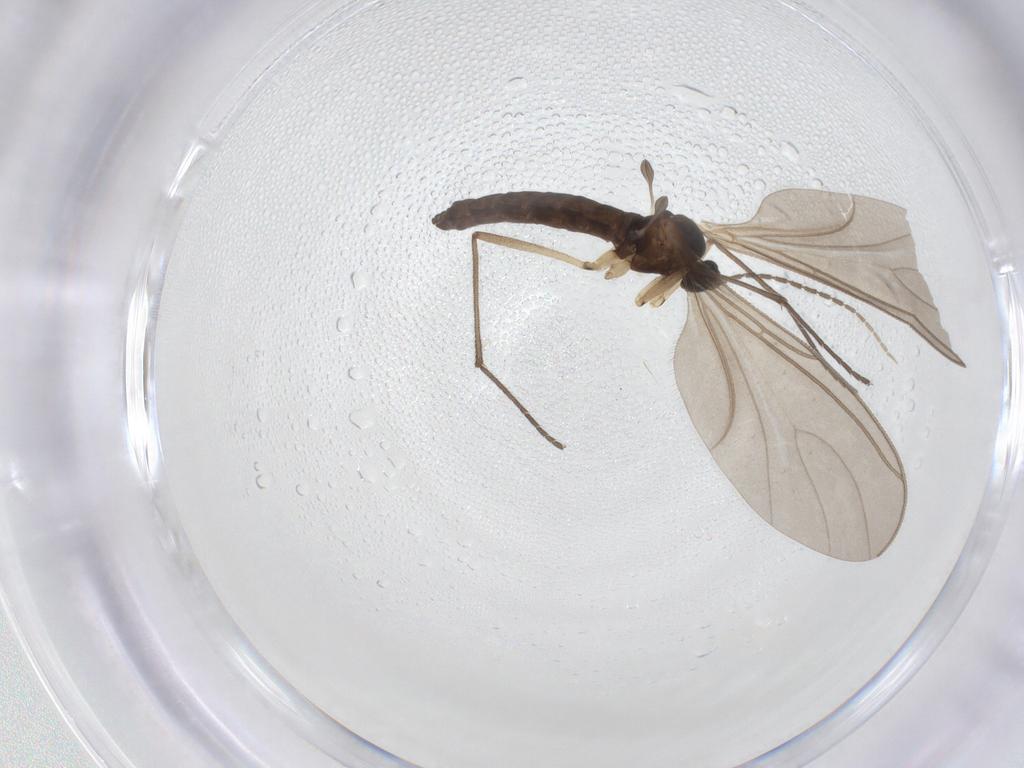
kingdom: Animalia
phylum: Arthropoda
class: Insecta
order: Diptera
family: Sciaridae
